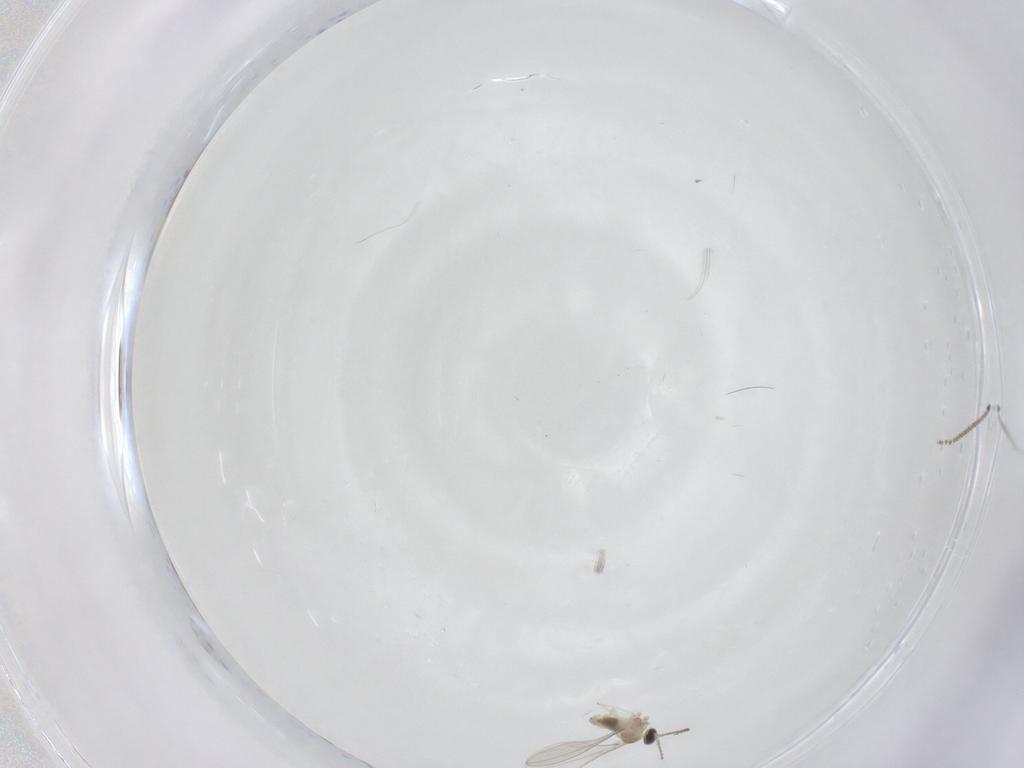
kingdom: Animalia
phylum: Arthropoda
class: Insecta
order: Diptera
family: Cecidomyiidae
